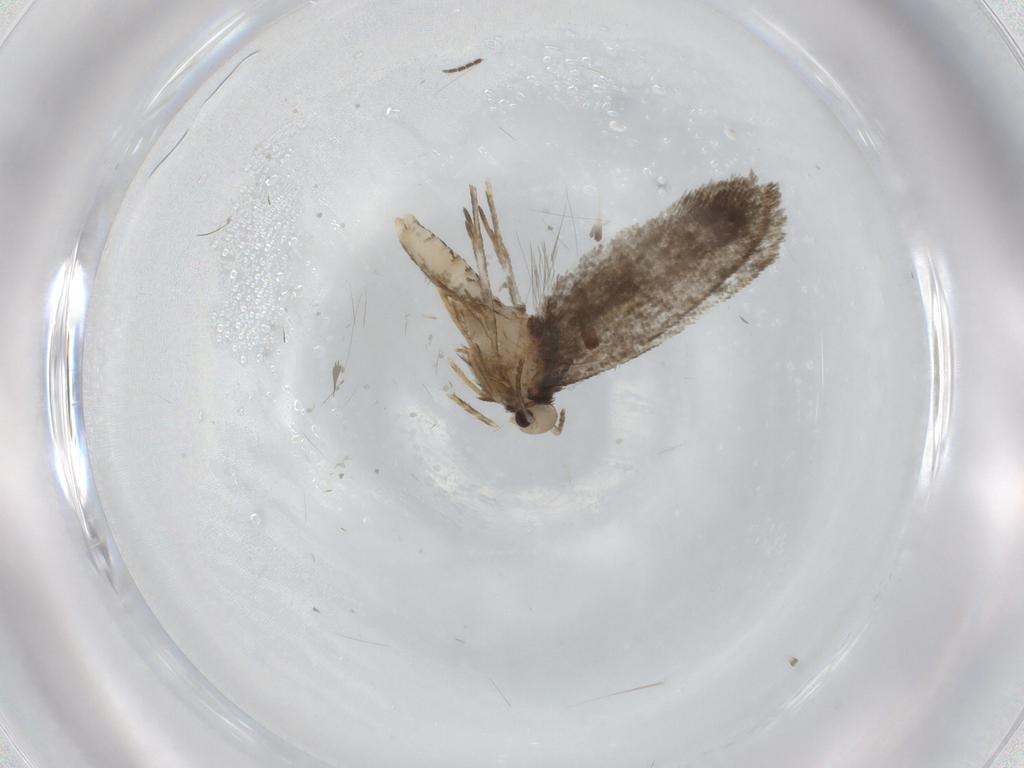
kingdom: Animalia
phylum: Arthropoda
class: Insecta
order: Lepidoptera
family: Psychidae
